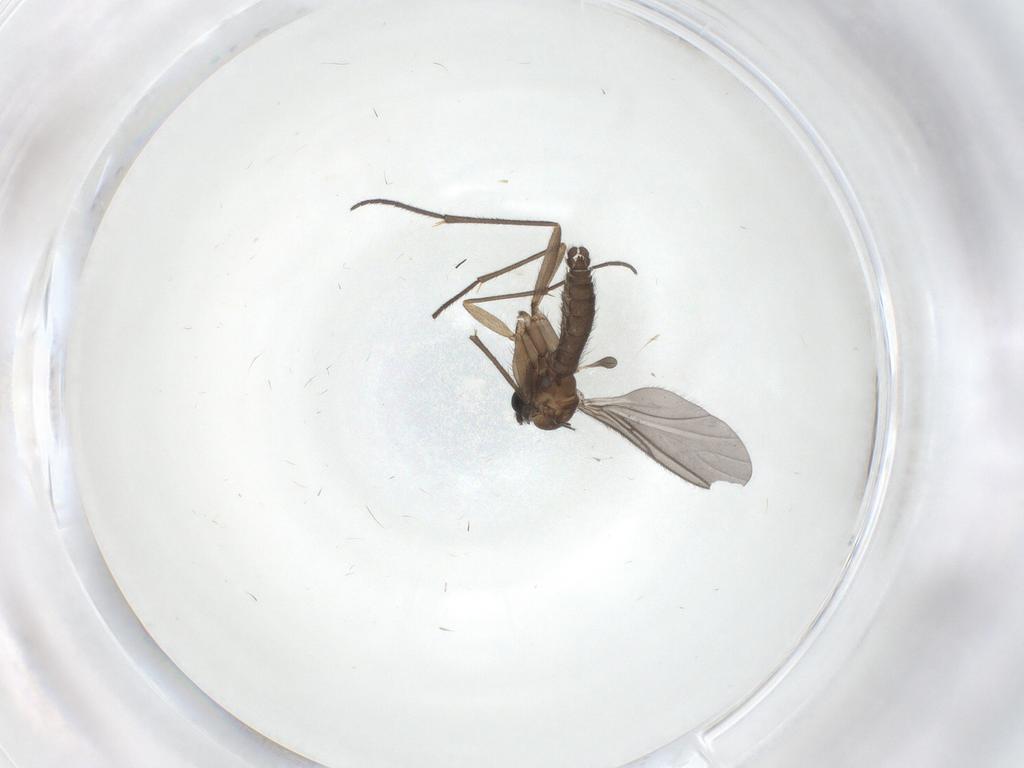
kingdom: Animalia
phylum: Arthropoda
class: Insecta
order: Diptera
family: Sciaridae
